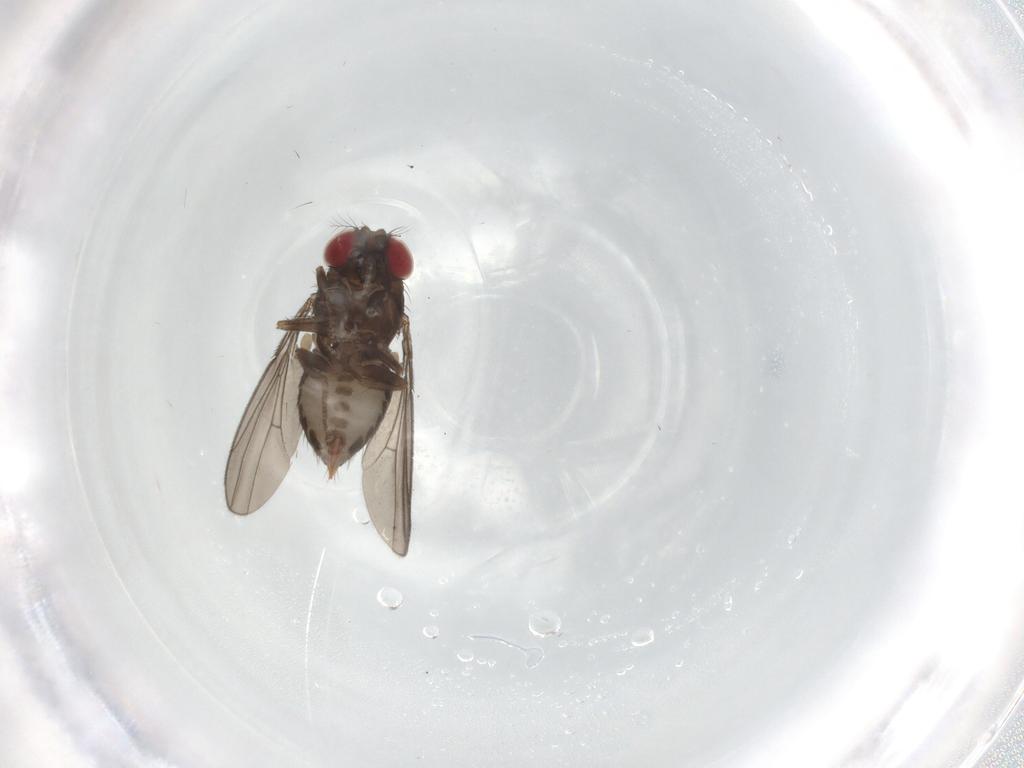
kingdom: Animalia
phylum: Arthropoda
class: Insecta
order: Diptera
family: Drosophilidae
